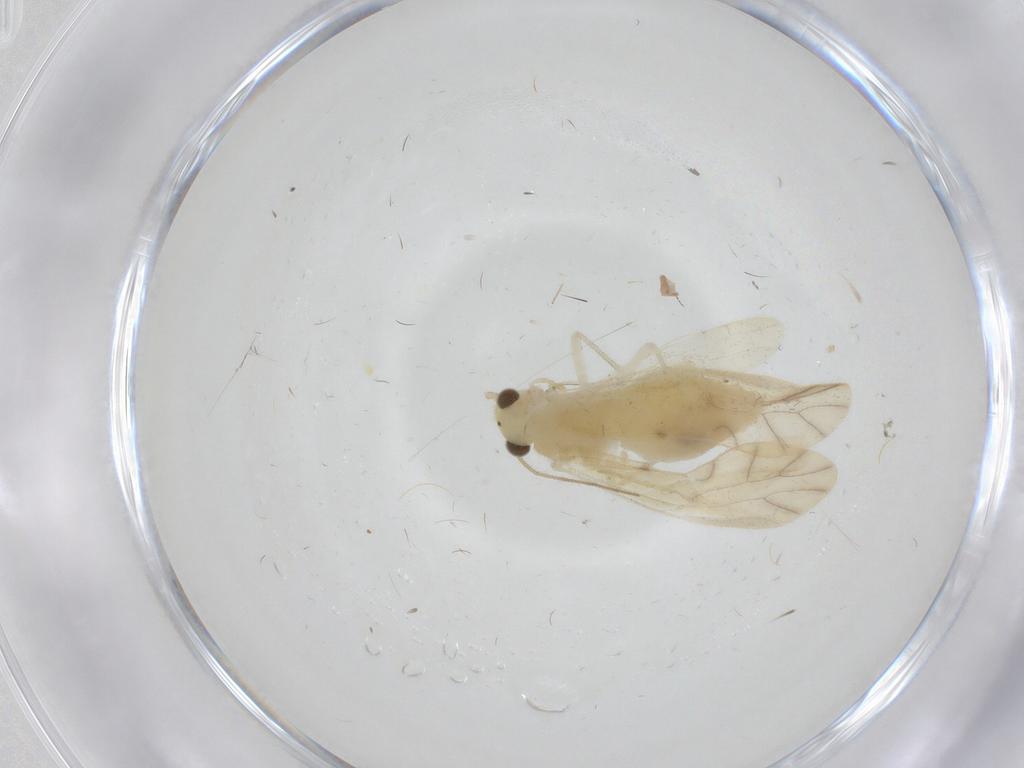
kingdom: Animalia
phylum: Arthropoda
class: Insecta
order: Psocodea
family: Caeciliusidae
